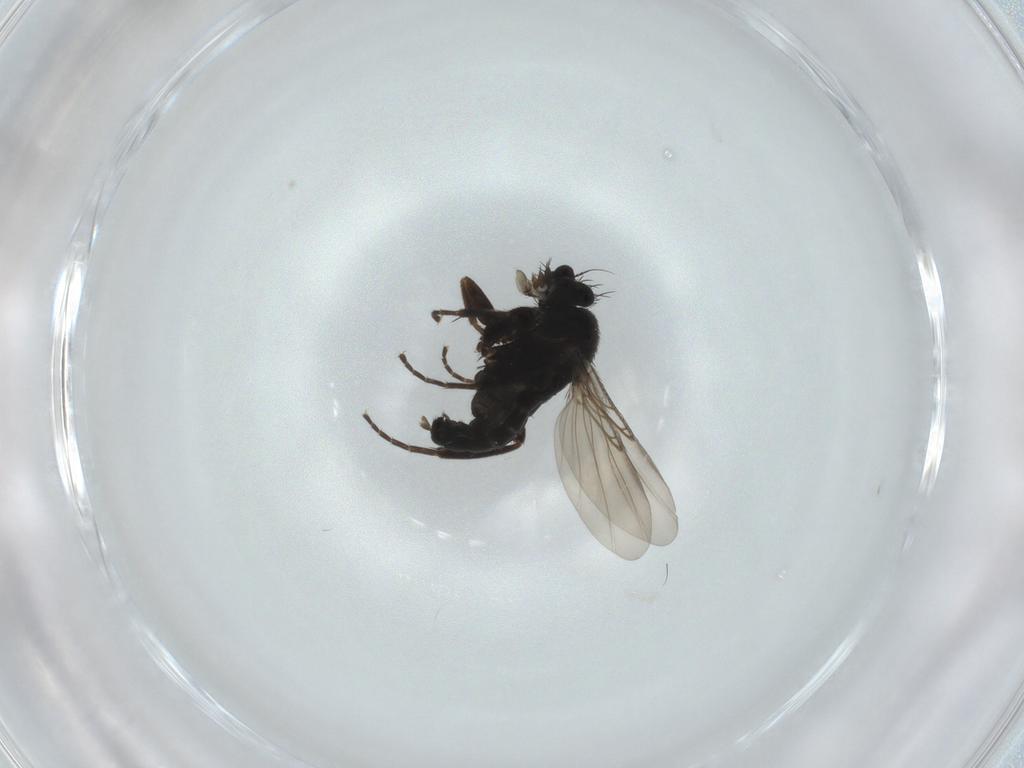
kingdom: Animalia
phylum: Arthropoda
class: Insecta
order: Diptera
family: Phoridae
